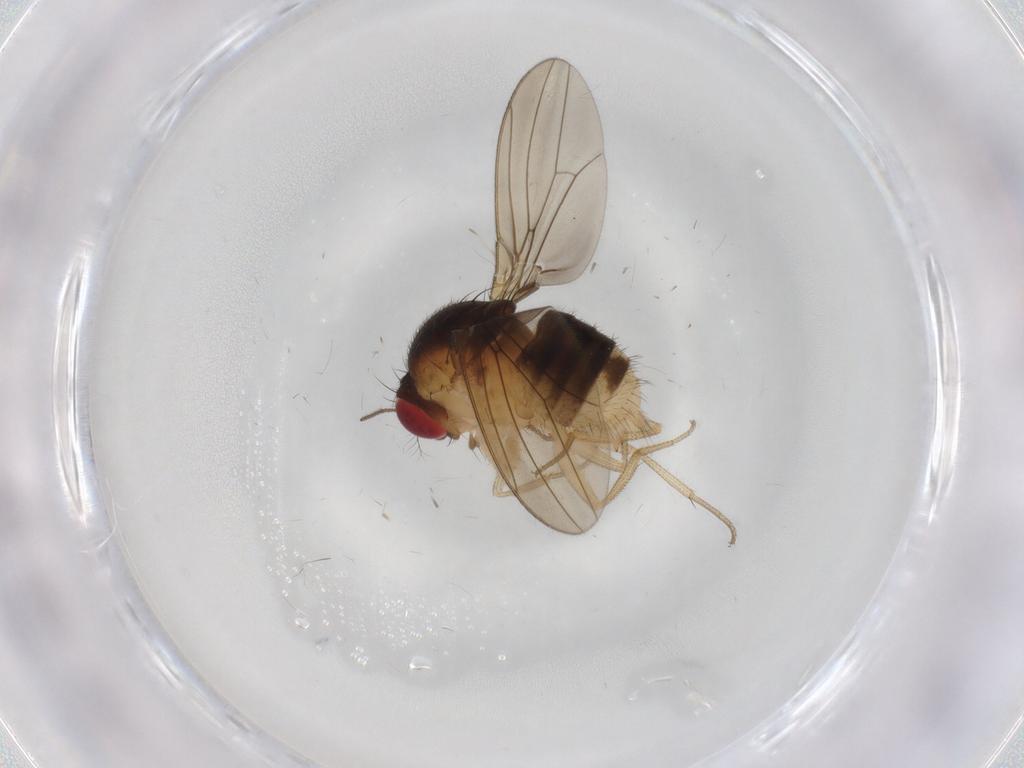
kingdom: Animalia
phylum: Arthropoda
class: Insecta
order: Diptera
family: Drosophilidae
